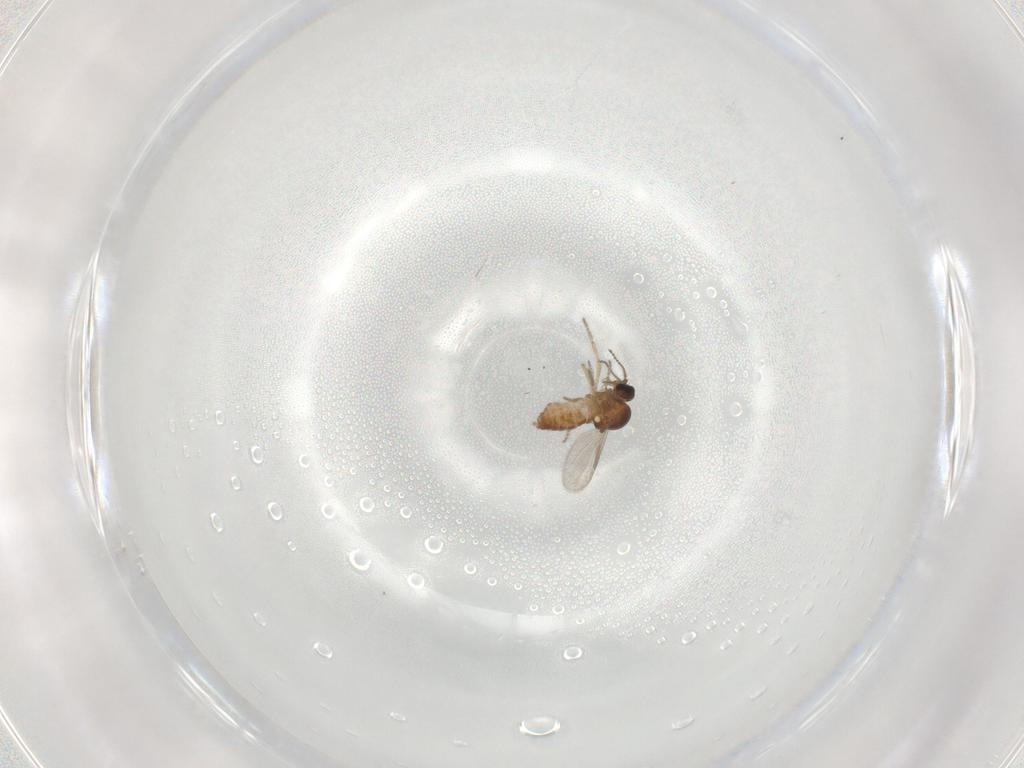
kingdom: Animalia
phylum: Arthropoda
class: Insecta
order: Diptera
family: Ceratopogonidae
